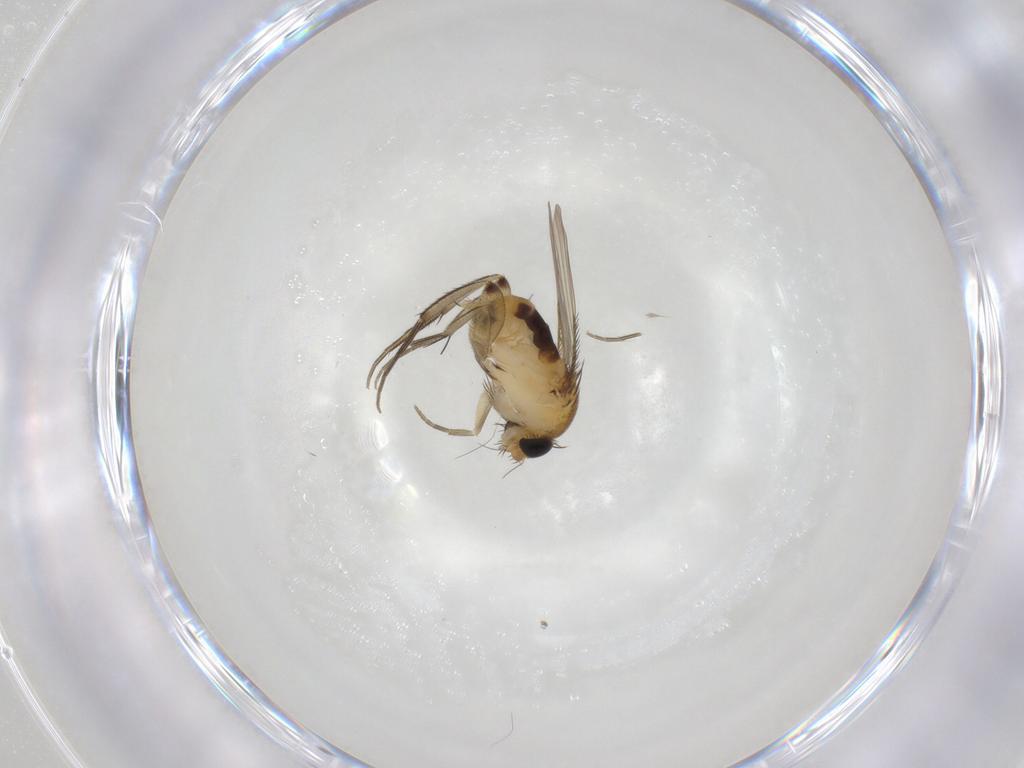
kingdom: Animalia
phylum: Arthropoda
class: Insecta
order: Diptera
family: Phoridae
